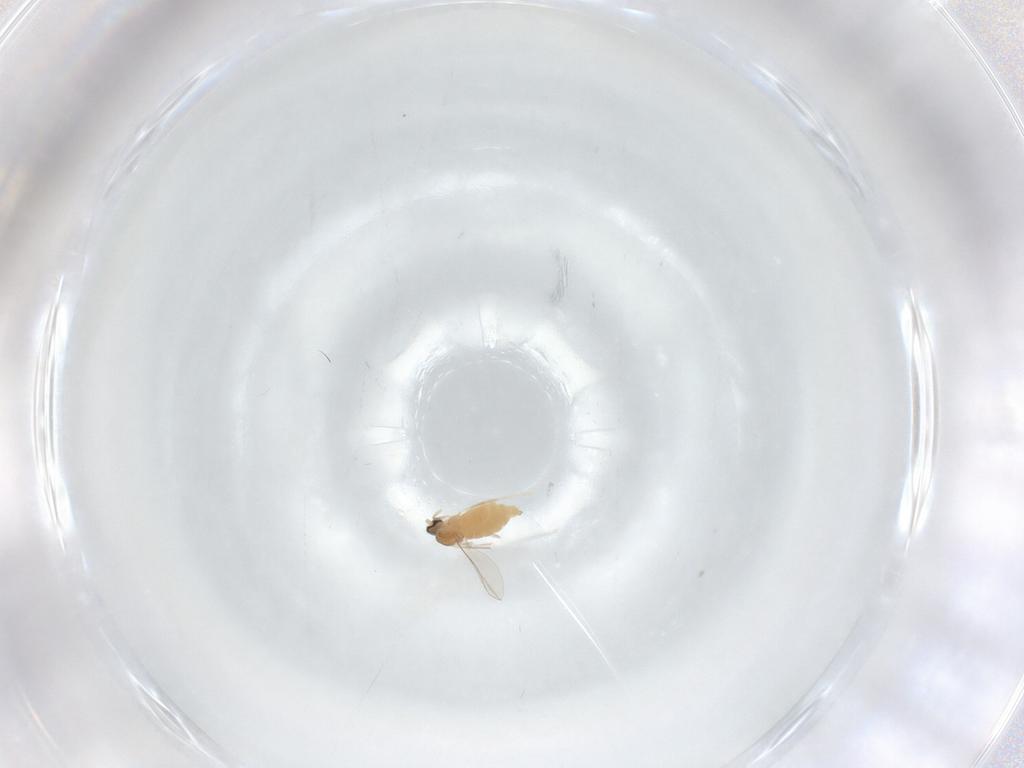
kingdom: Animalia
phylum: Arthropoda
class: Insecta
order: Diptera
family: Cecidomyiidae
